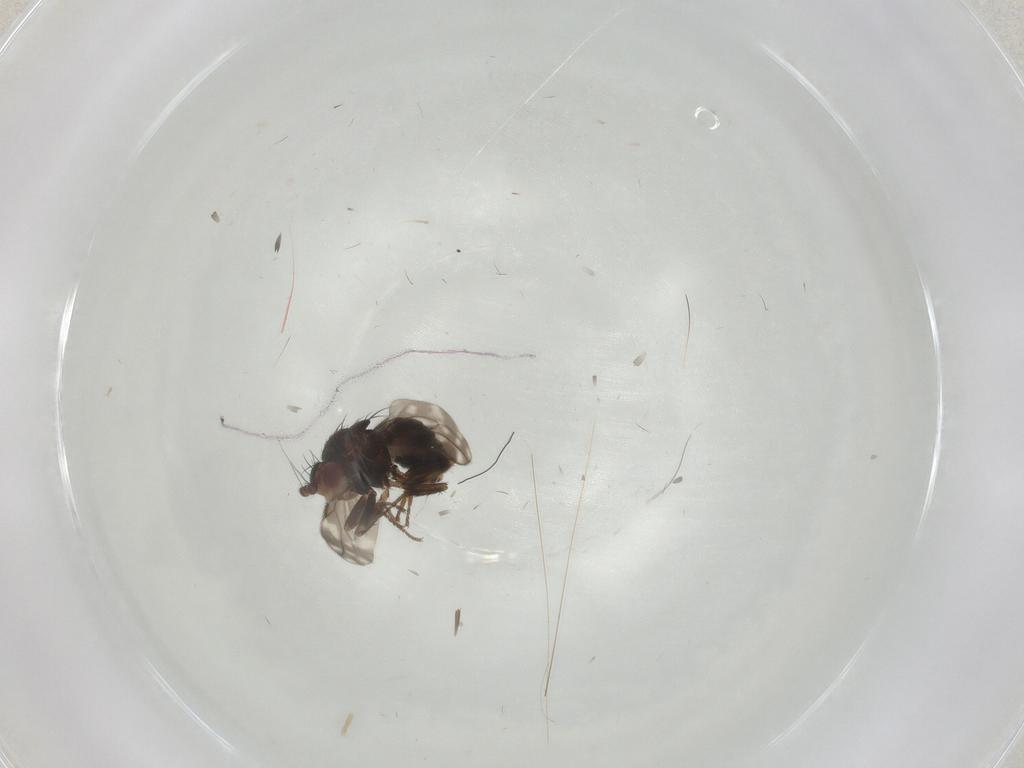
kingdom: Animalia
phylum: Arthropoda
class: Insecta
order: Diptera
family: Sphaeroceridae
